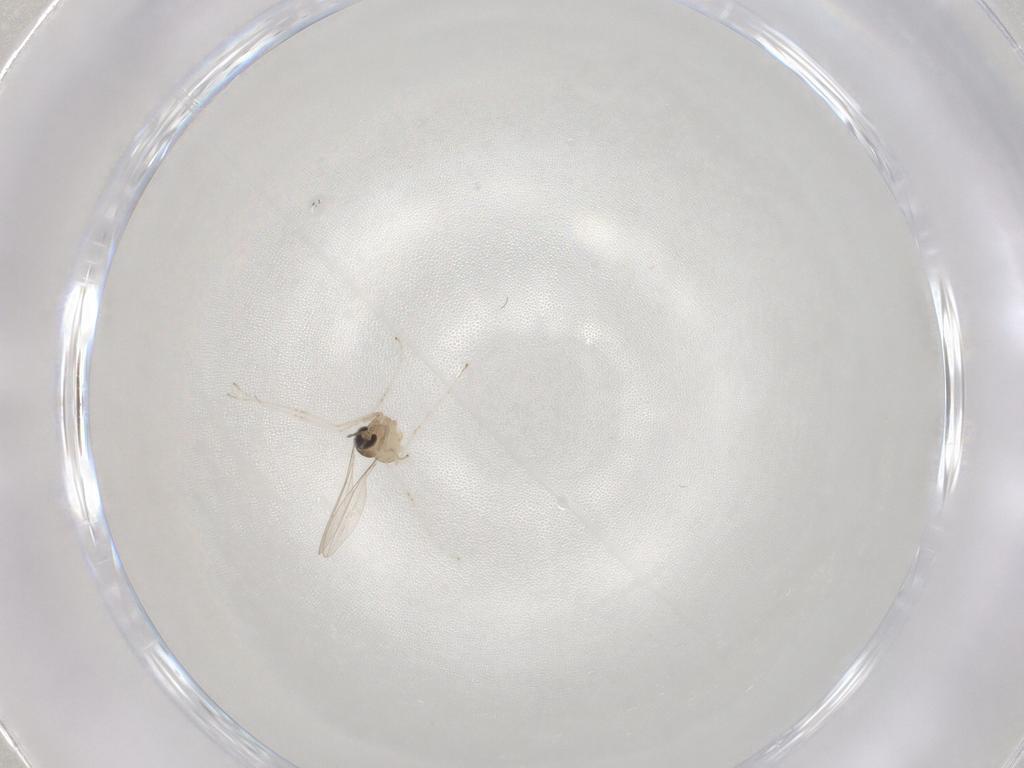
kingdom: Animalia
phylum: Arthropoda
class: Insecta
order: Diptera
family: Cecidomyiidae
